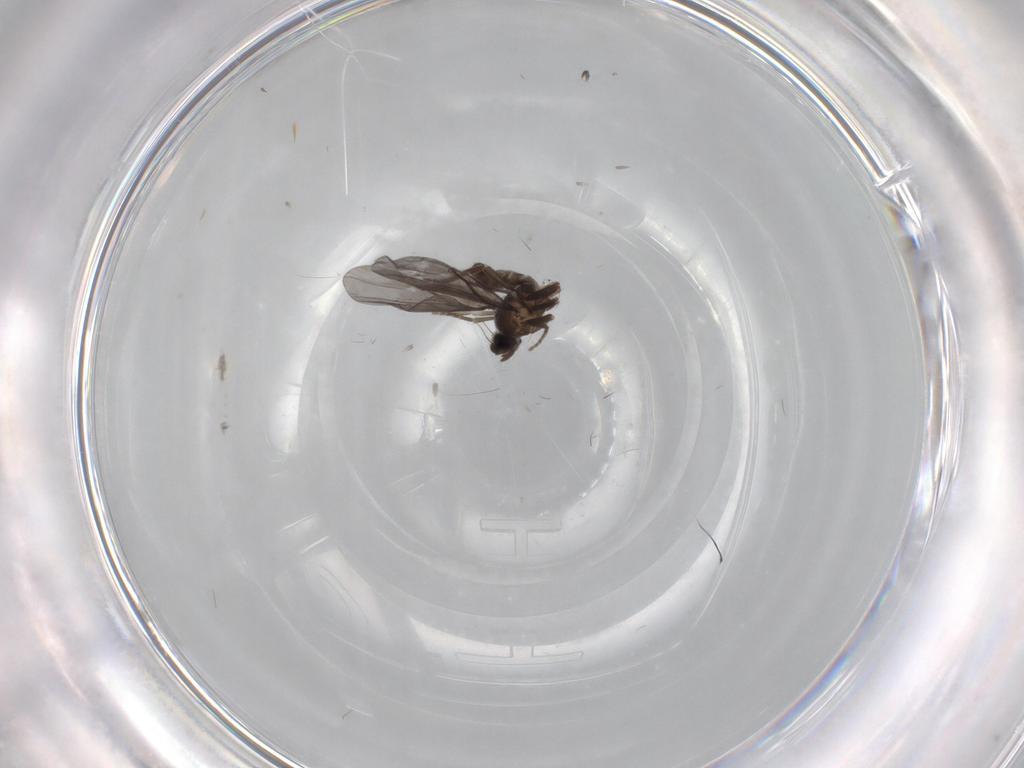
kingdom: Animalia
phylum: Arthropoda
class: Insecta
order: Diptera
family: Phoridae
